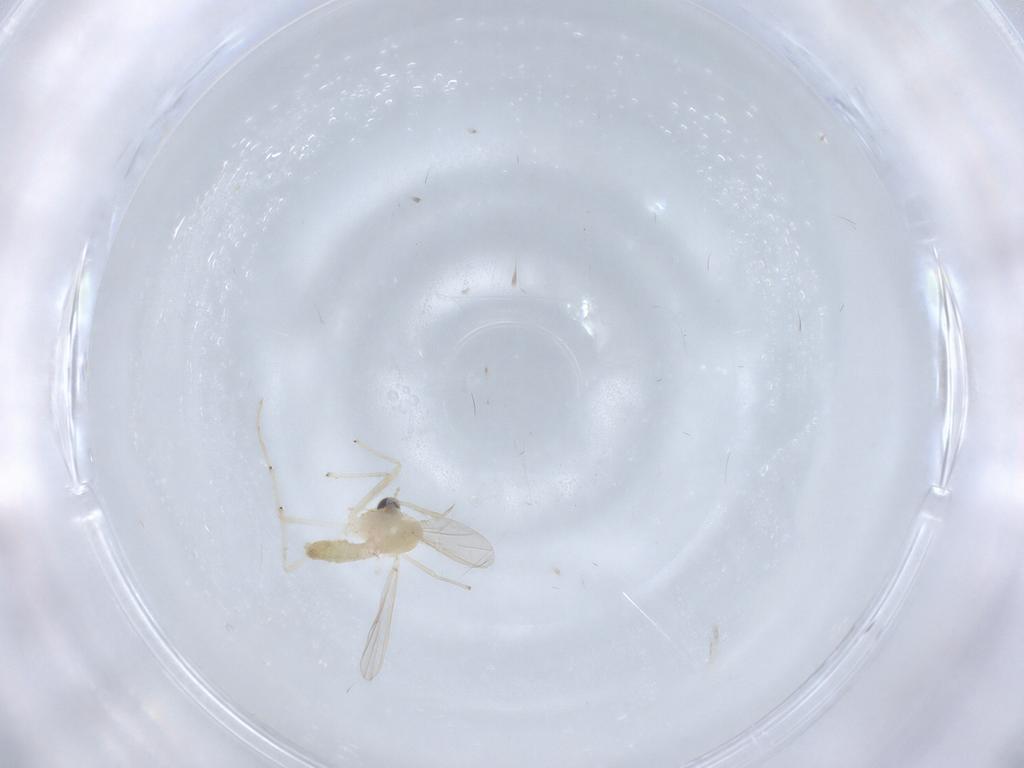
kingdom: Animalia
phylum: Arthropoda
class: Insecta
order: Diptera
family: Chironomidae
